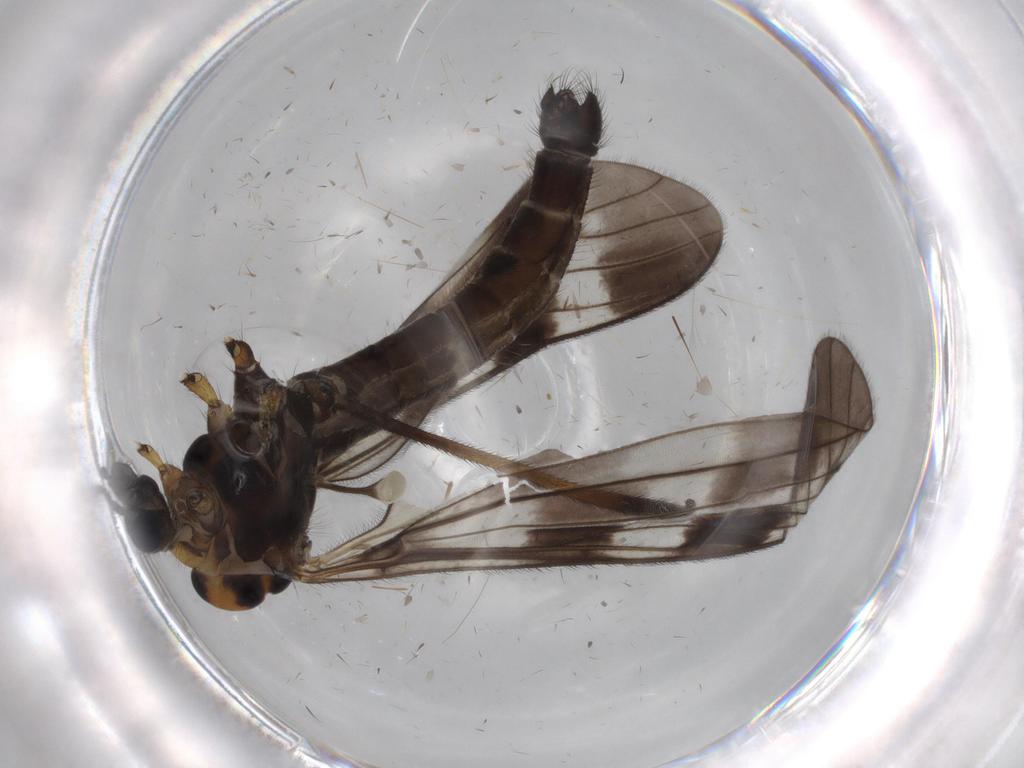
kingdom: Animalia
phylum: Arthropoda
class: Insecta
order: Diptera
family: Limoniidae
